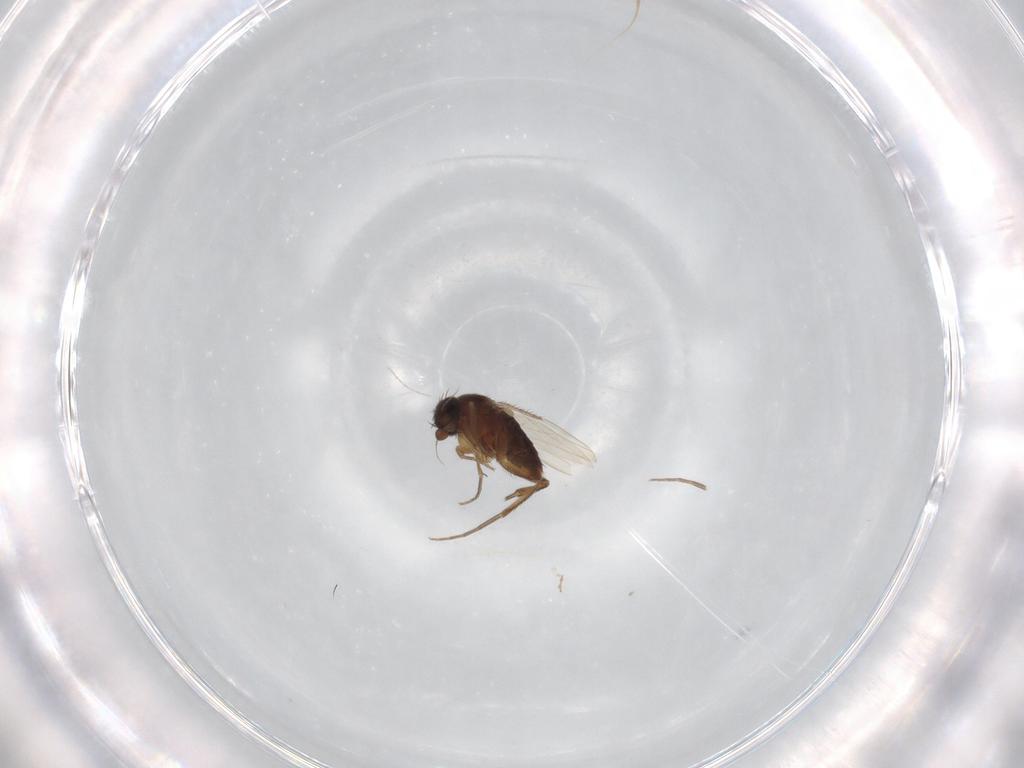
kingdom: Animalia
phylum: Arthropoda
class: Insecta
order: Diptera
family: Phoridae
